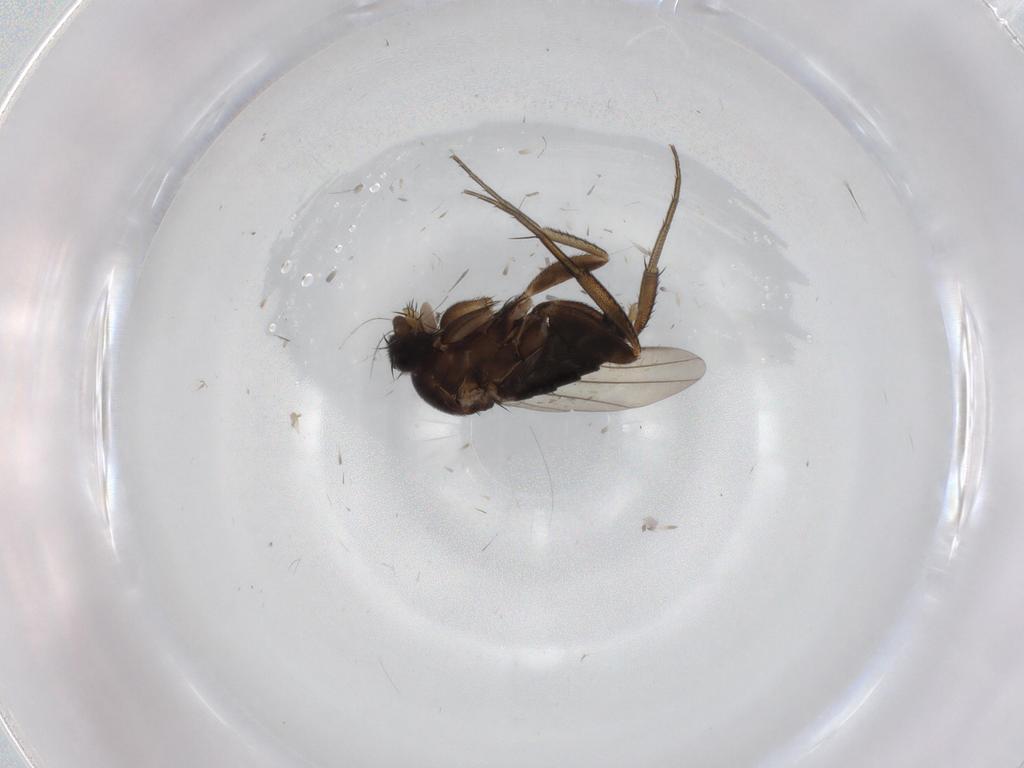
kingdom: Animalia
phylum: Arthropoda
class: Insecta
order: Diptera
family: Phoridae
